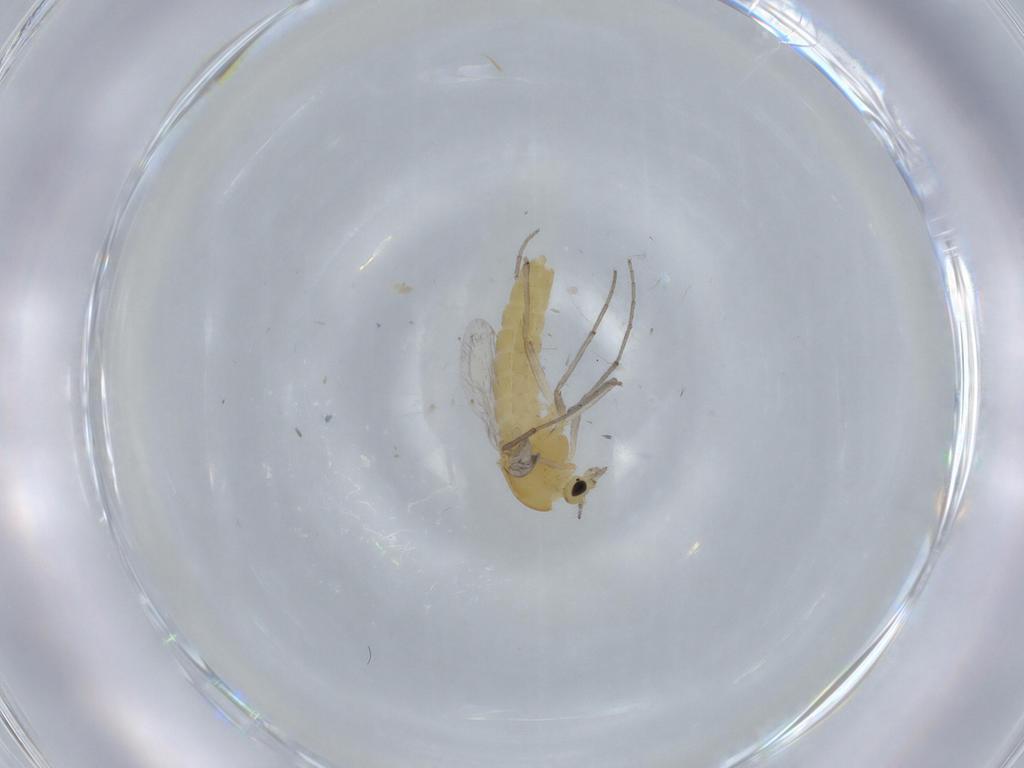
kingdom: Animalia
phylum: Arthropoda
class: Insecta
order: Diptera
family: Chironomidae
